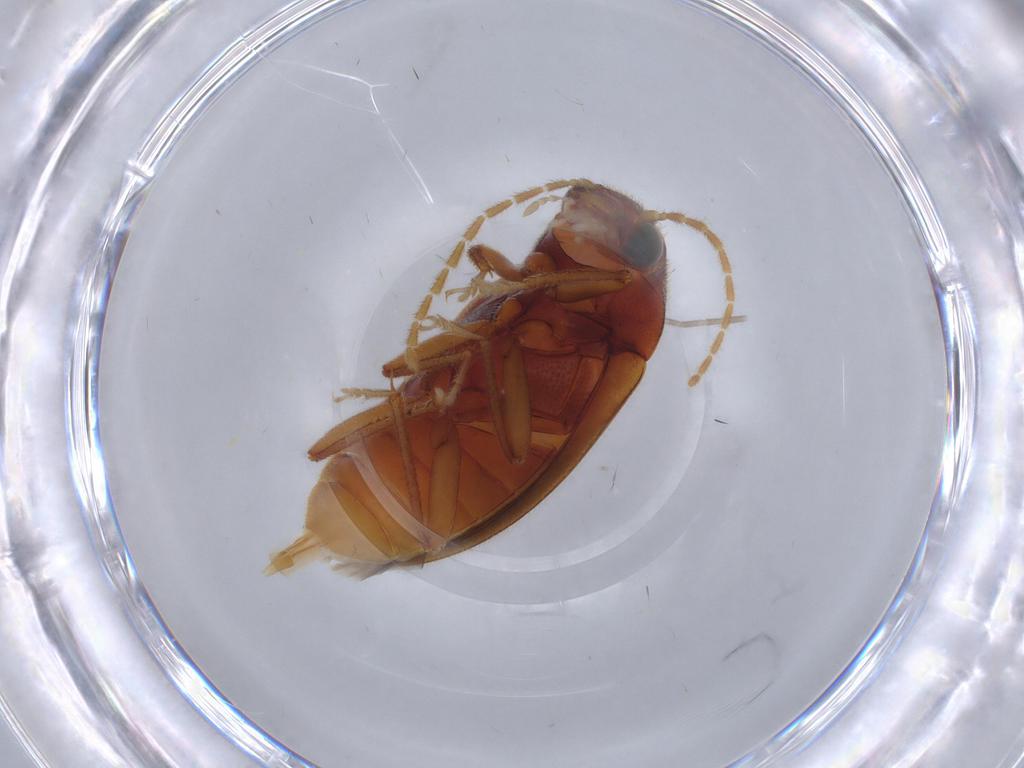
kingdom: Animalia
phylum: Arthropoda
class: Insecta
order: Coleoptera
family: Ptilodactylidae
